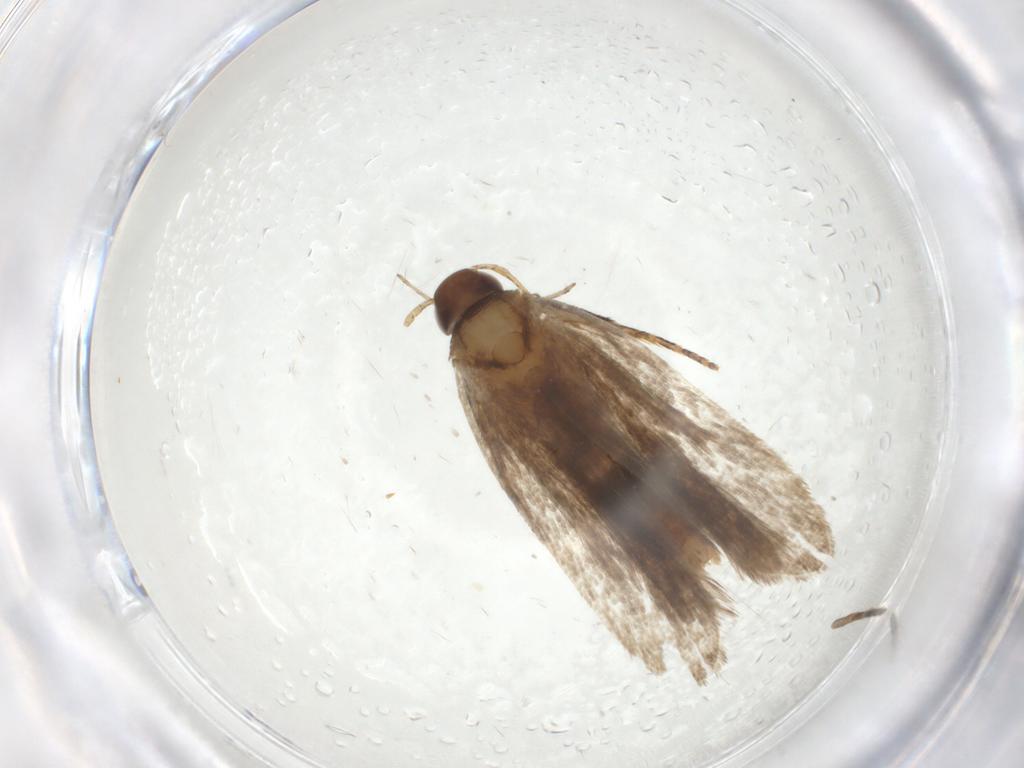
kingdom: Animalia
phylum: Arthropoda
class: Insecta
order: Lepidoptera
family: Gelechiidae
